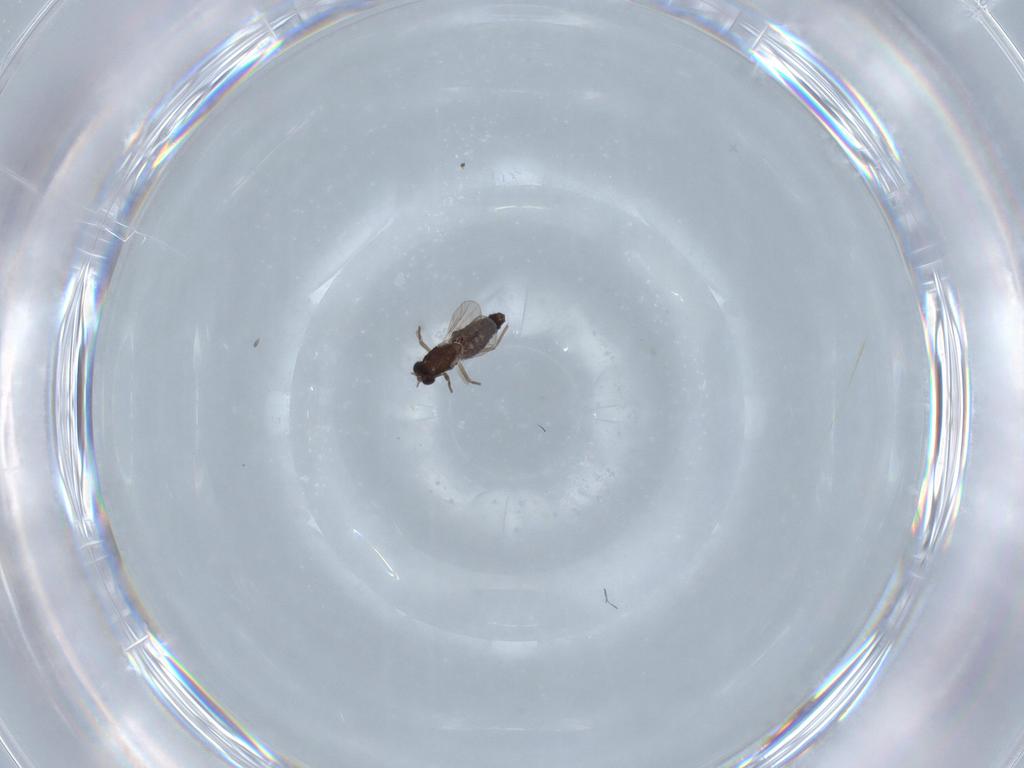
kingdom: Animalia
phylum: Arthropoda
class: Insecta
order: Diptera
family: Chironomidae
